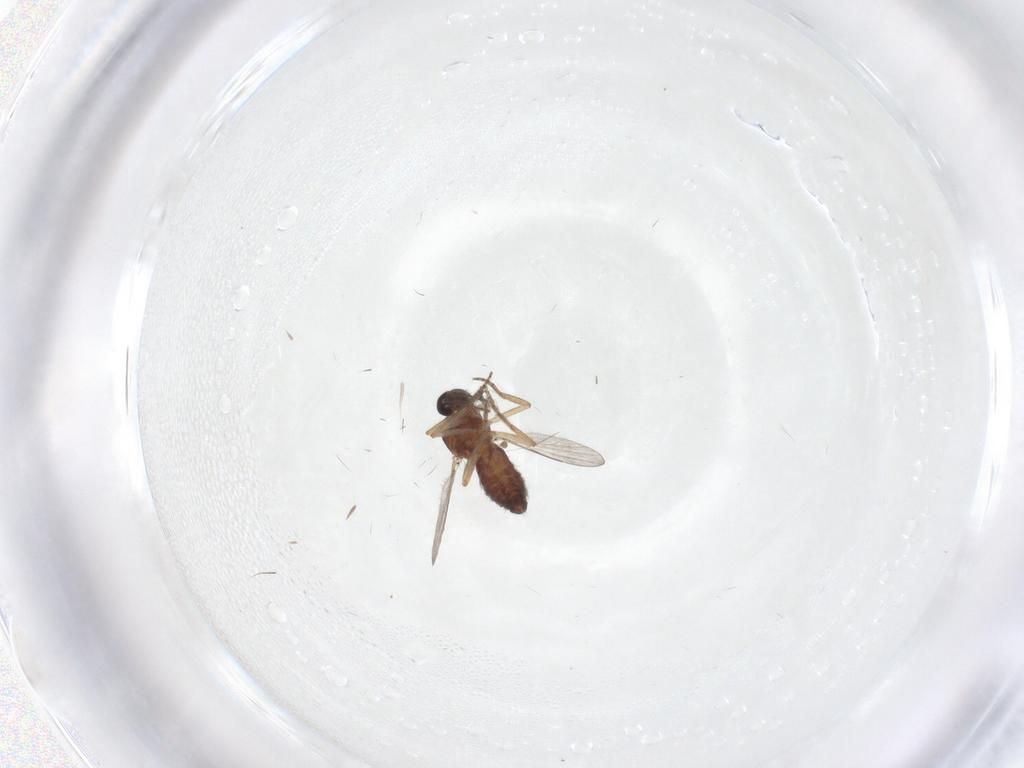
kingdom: Animalia
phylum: Arthropoda
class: Insecta
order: Diptera
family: Ceratopogonidae
